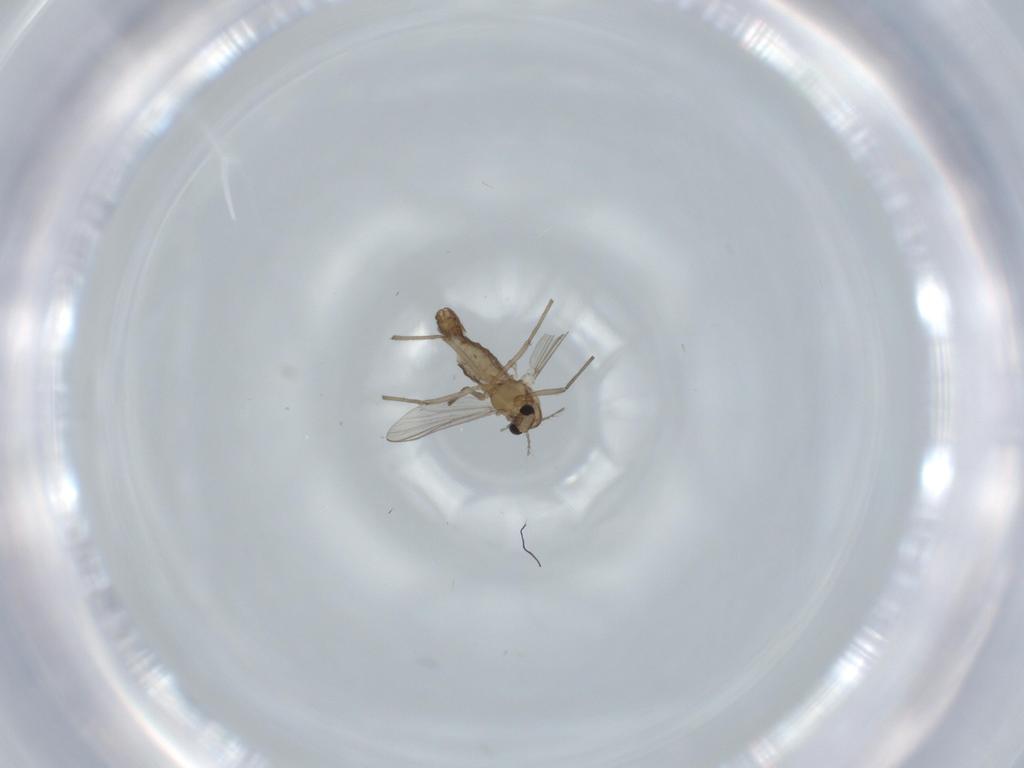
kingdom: Animalia
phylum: Arthropoda
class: Insecta
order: Diptera
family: Chironomidae
